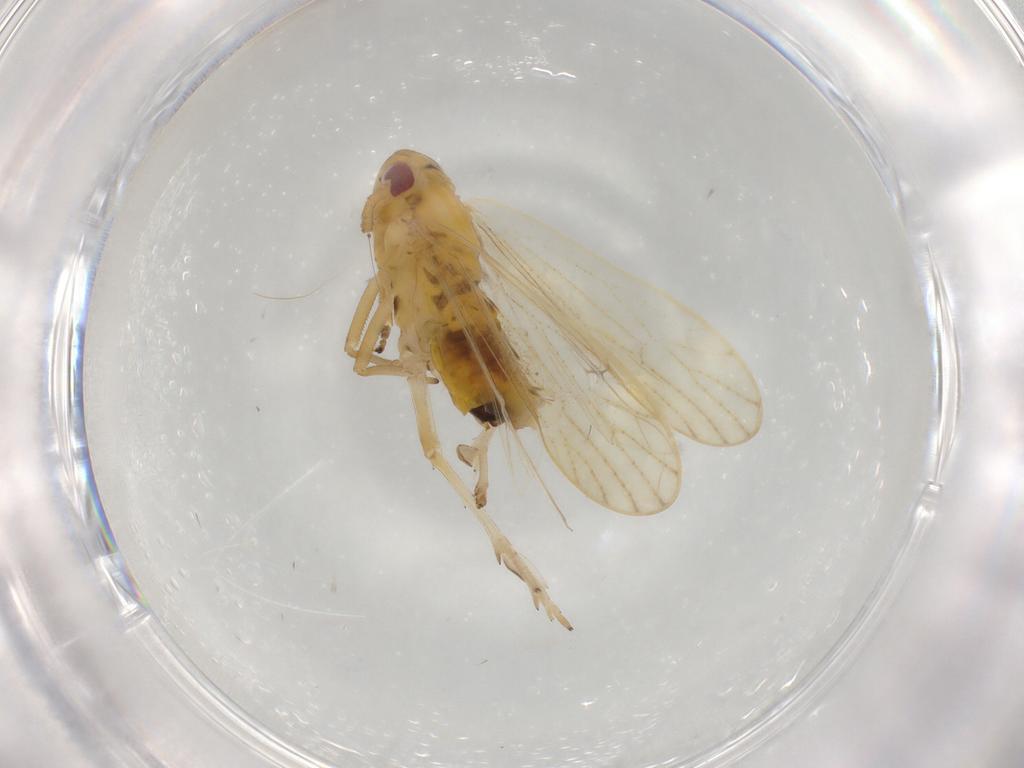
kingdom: Animalia
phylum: Arthropoda
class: Insecta
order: Hemiptera
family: Delphacidae
